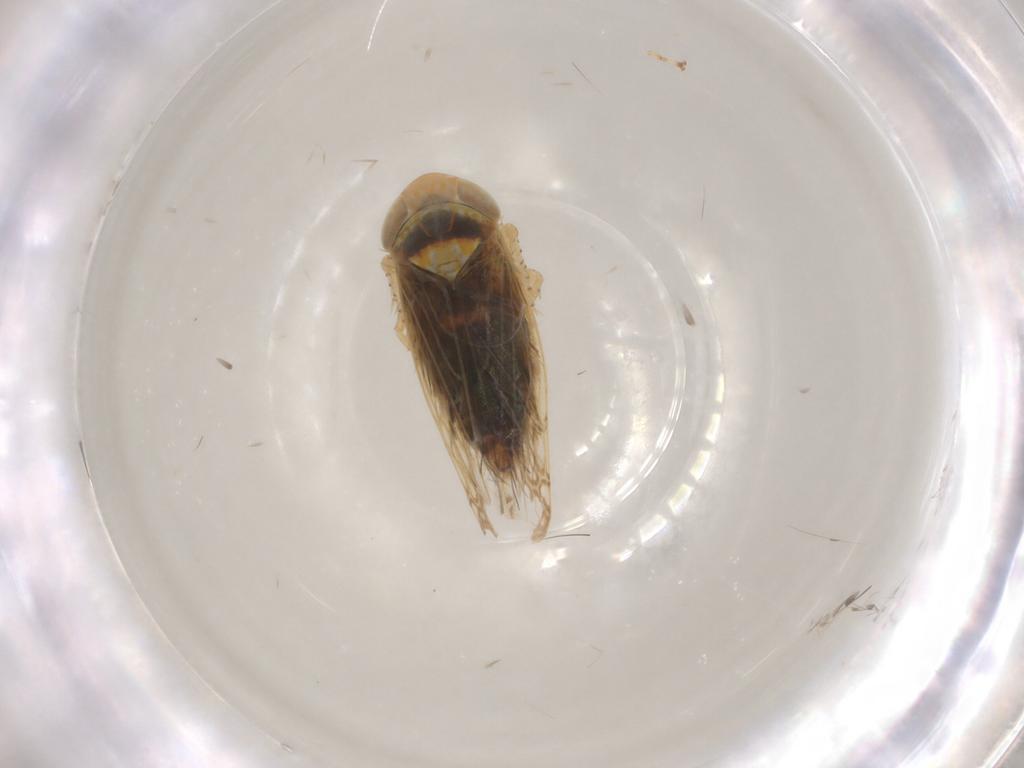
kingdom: Animalia
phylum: Arthropoda
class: Insecta
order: Hemiptera
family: Cicadellidae
